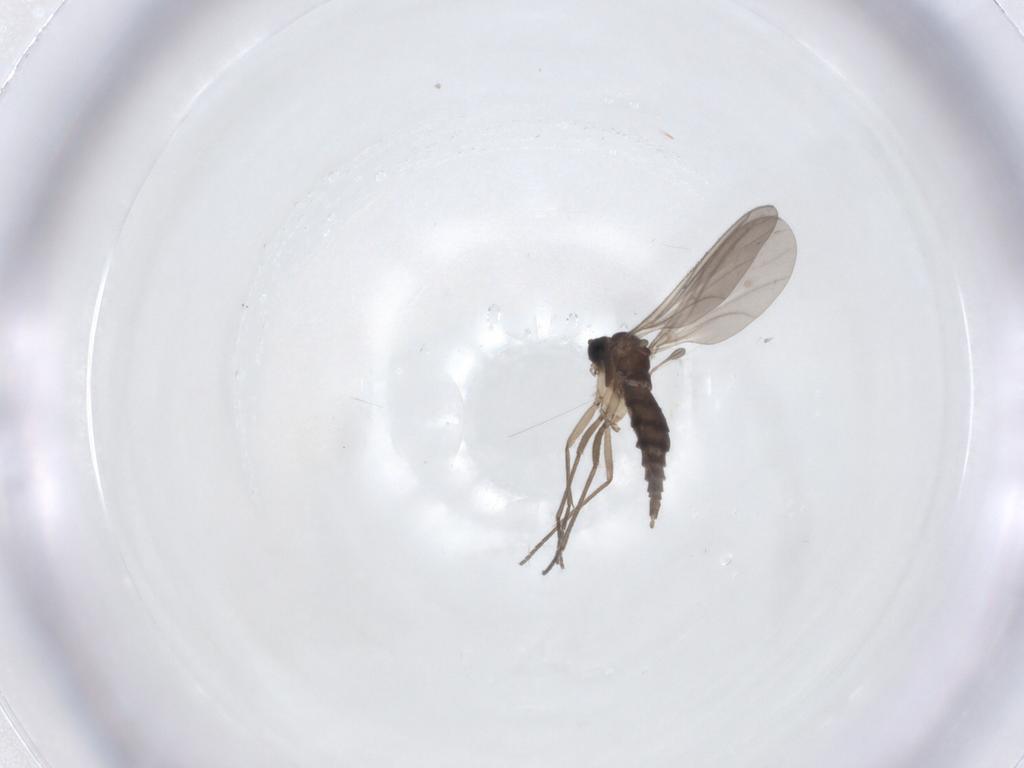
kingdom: Animalia
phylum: Arthropoda
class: Insecta
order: Diptera
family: Sciaridae
